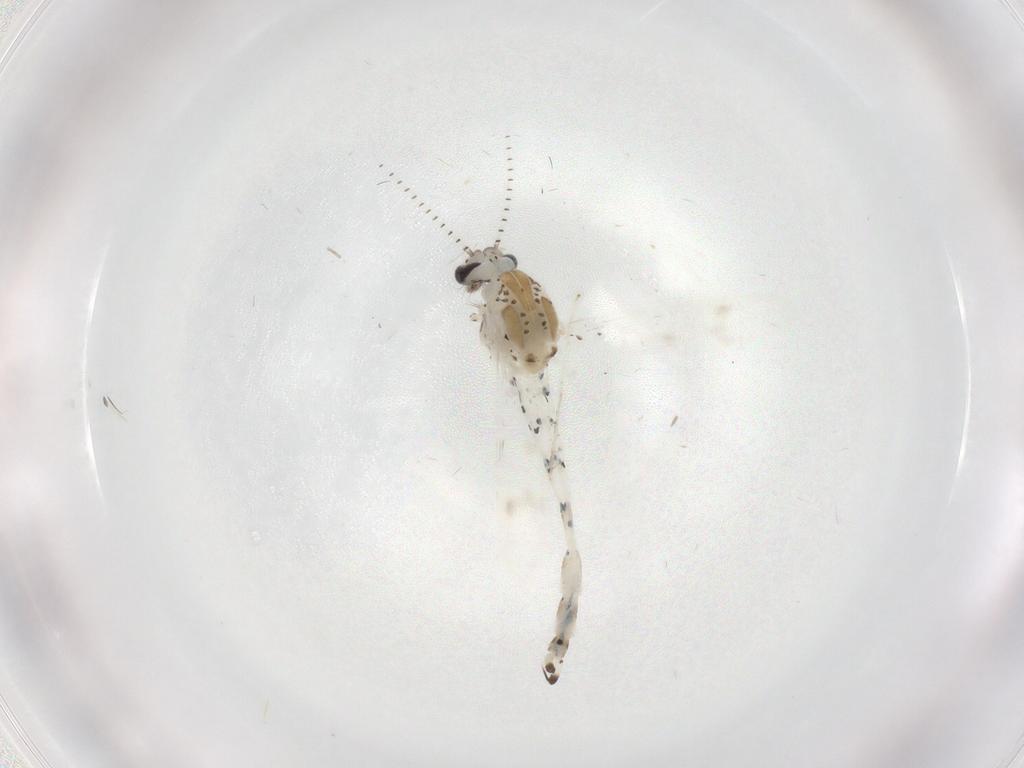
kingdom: Animalia
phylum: Arthropoda
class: Insecta
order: Diptera
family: Chaoboridae
